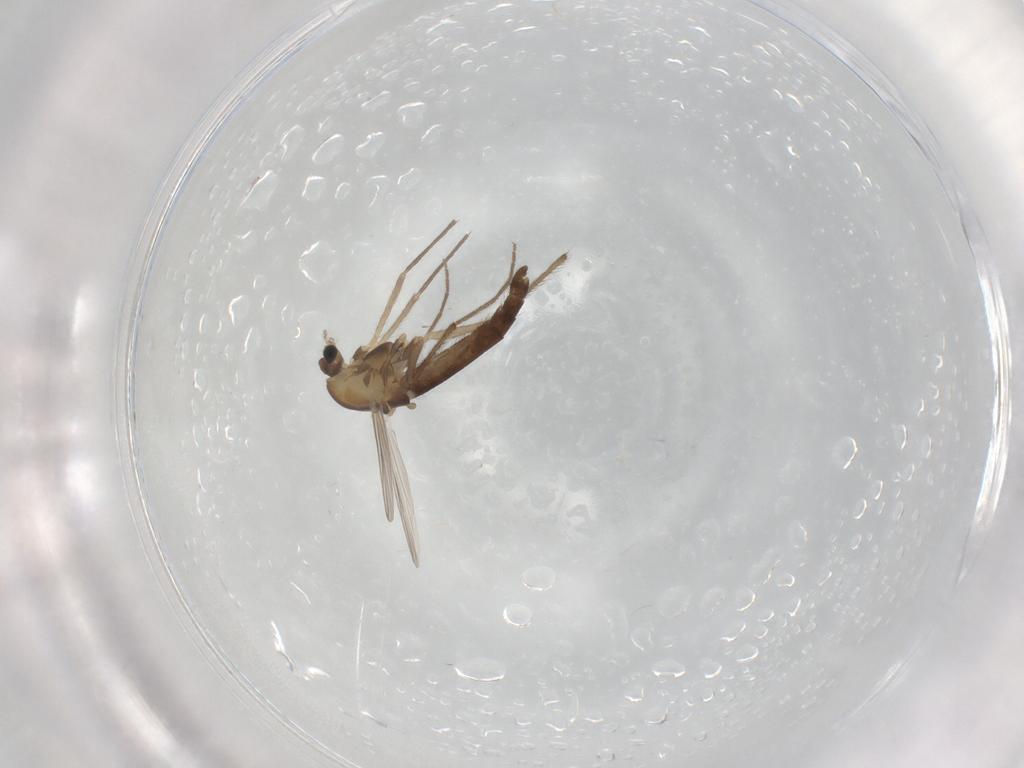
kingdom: Animalia
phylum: Arthropoda
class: Insecta
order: Diptera
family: Chironomidae
